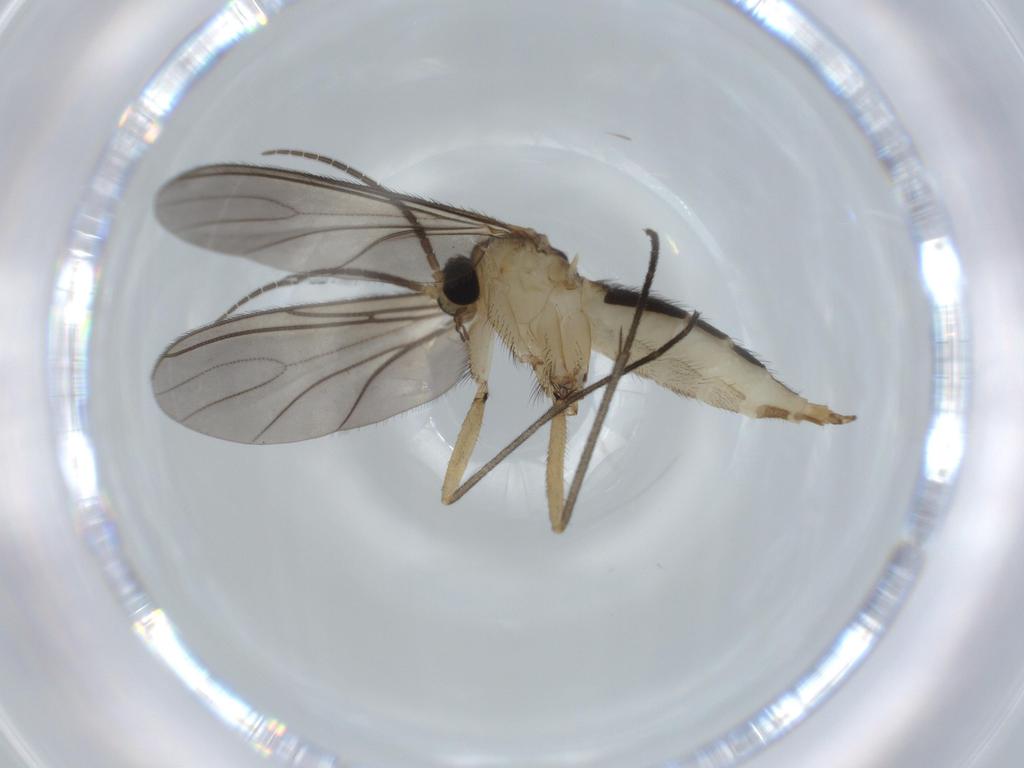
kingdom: Animalia
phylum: Arthropoda
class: Insecta
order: Diptera
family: Sciaridae
